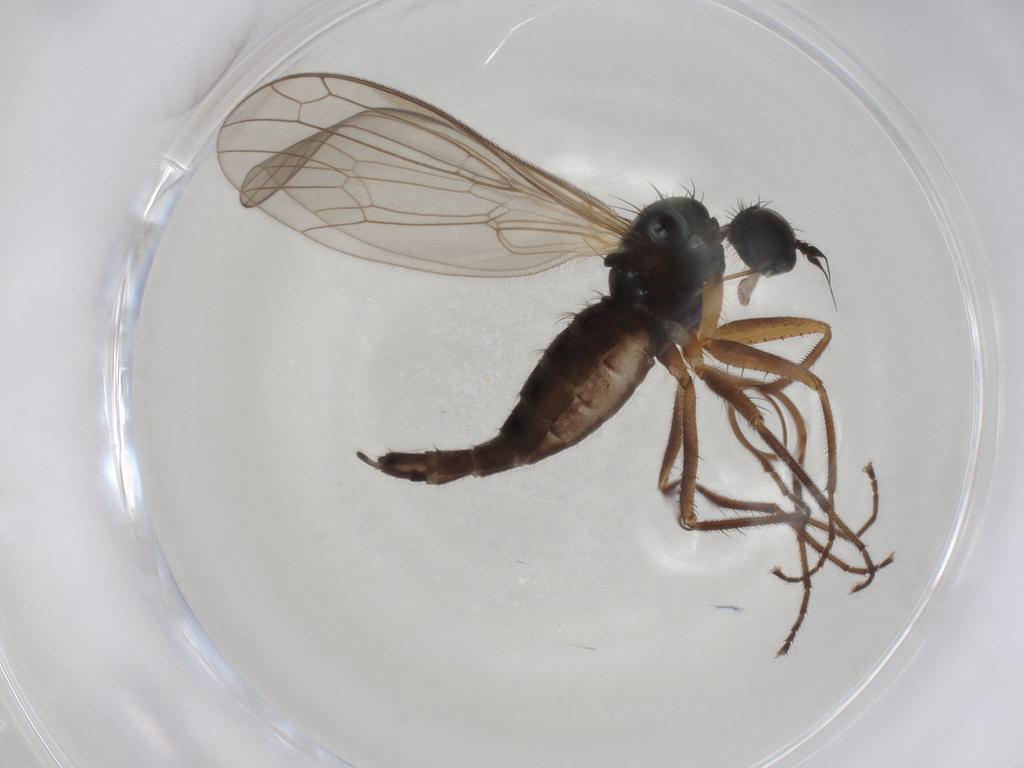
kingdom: Animalia
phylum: Arthropoda
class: Insecta
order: Diptera
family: Chironomidae
